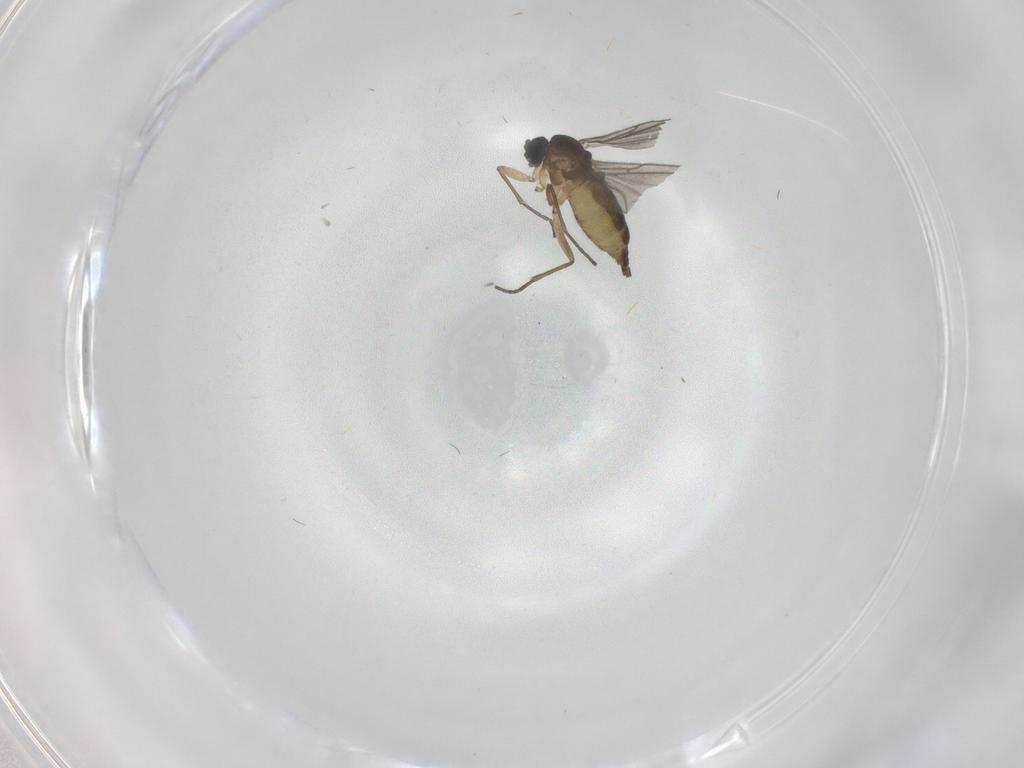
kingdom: Animalia
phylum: Arthropoda
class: Insecta
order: Diptera
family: Sciaridae
